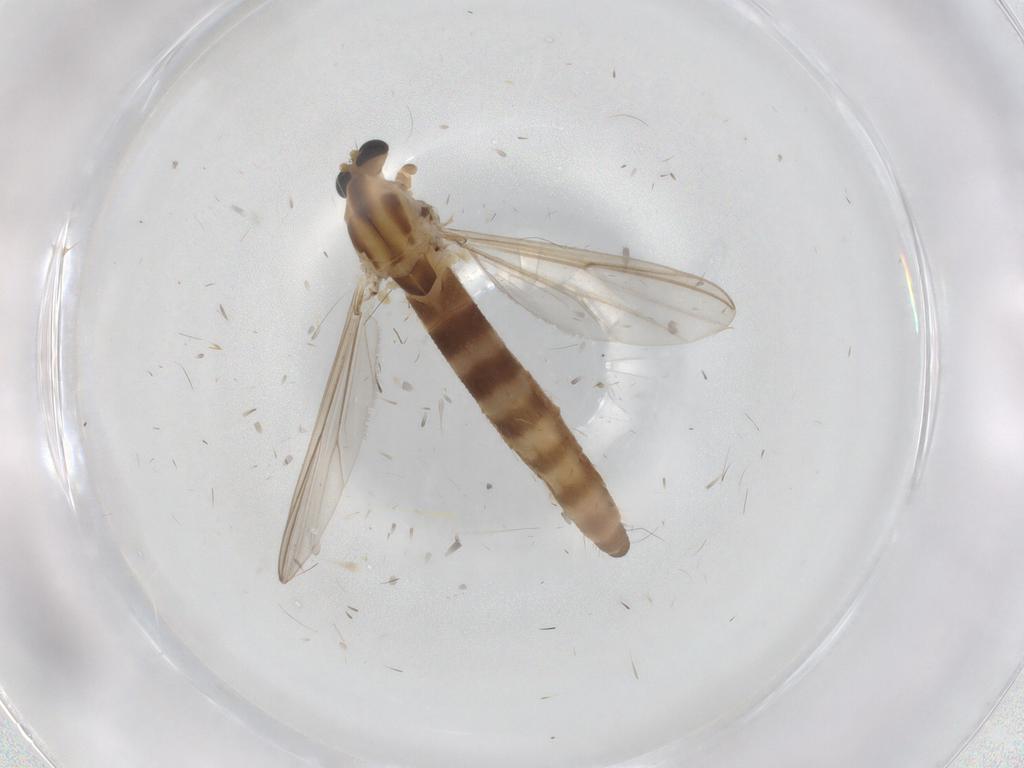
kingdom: Animalia
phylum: Arthropoda
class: Insecta
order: Diptera
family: Chironomidae
